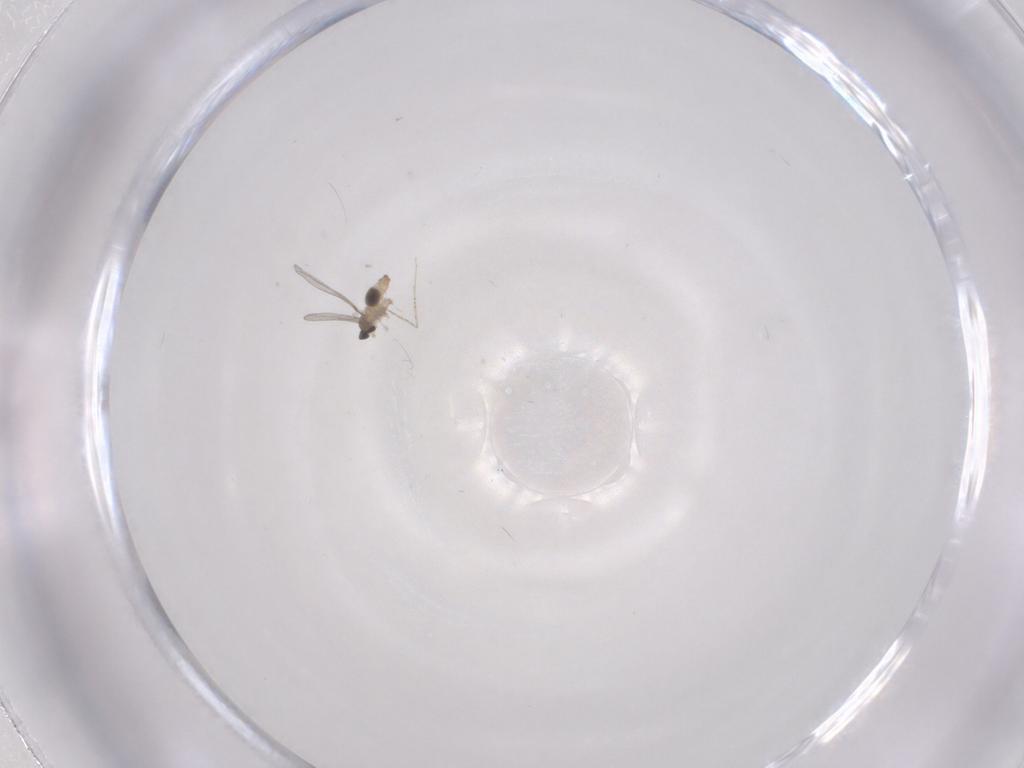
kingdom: Animalia
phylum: Arthropoda
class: Insecta
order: Diptera
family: Cecidomyiidae
